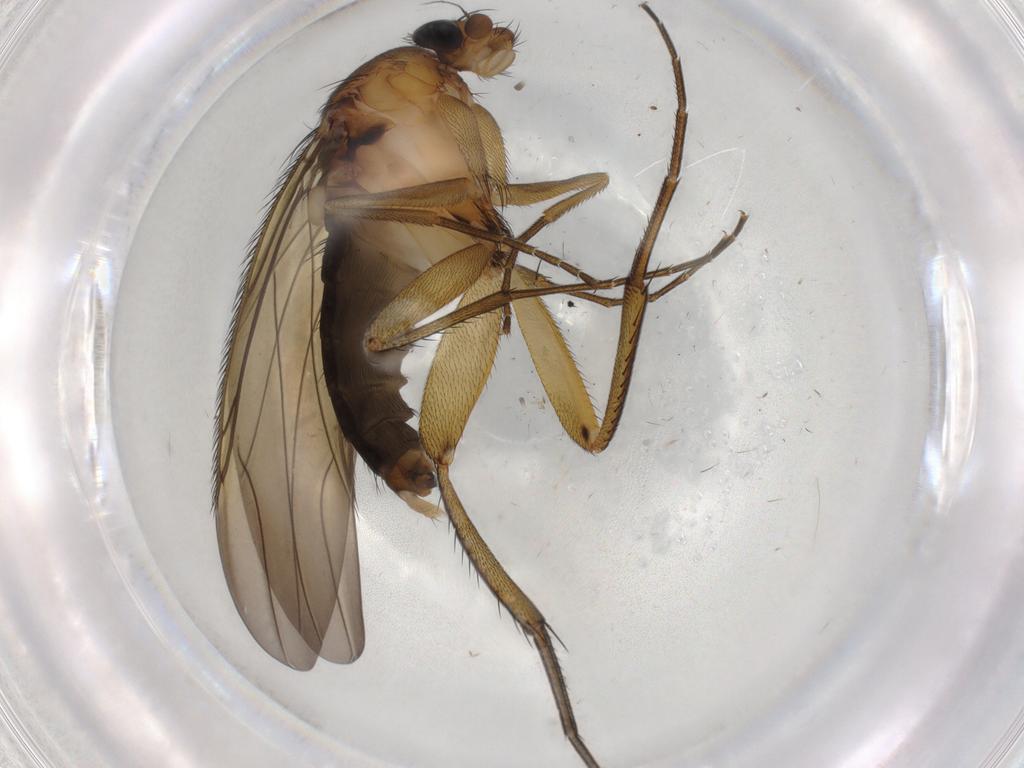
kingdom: Animalia
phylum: Arthropoda
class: Insecta
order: Diptera
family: Phoridae
